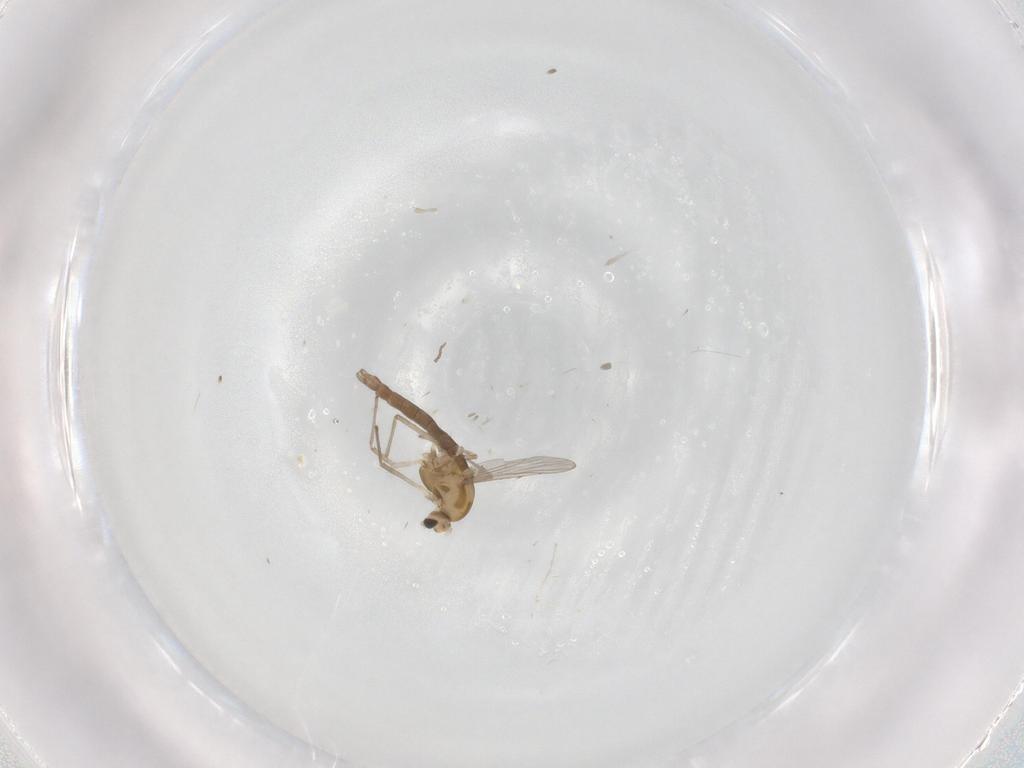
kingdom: Animalia
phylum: Arthropoda
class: Insecta
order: Diptera
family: Chironomidae
